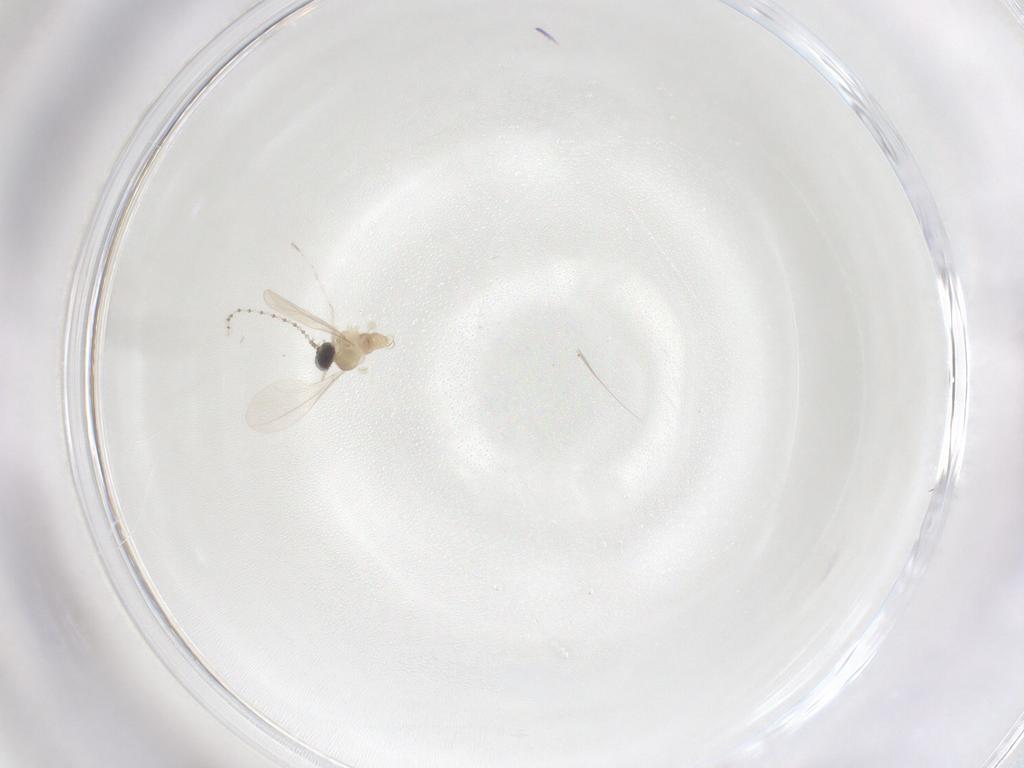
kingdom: Animalia
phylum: Arthropoda
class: Insecta
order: Diptera
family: Cecidomyiidae
